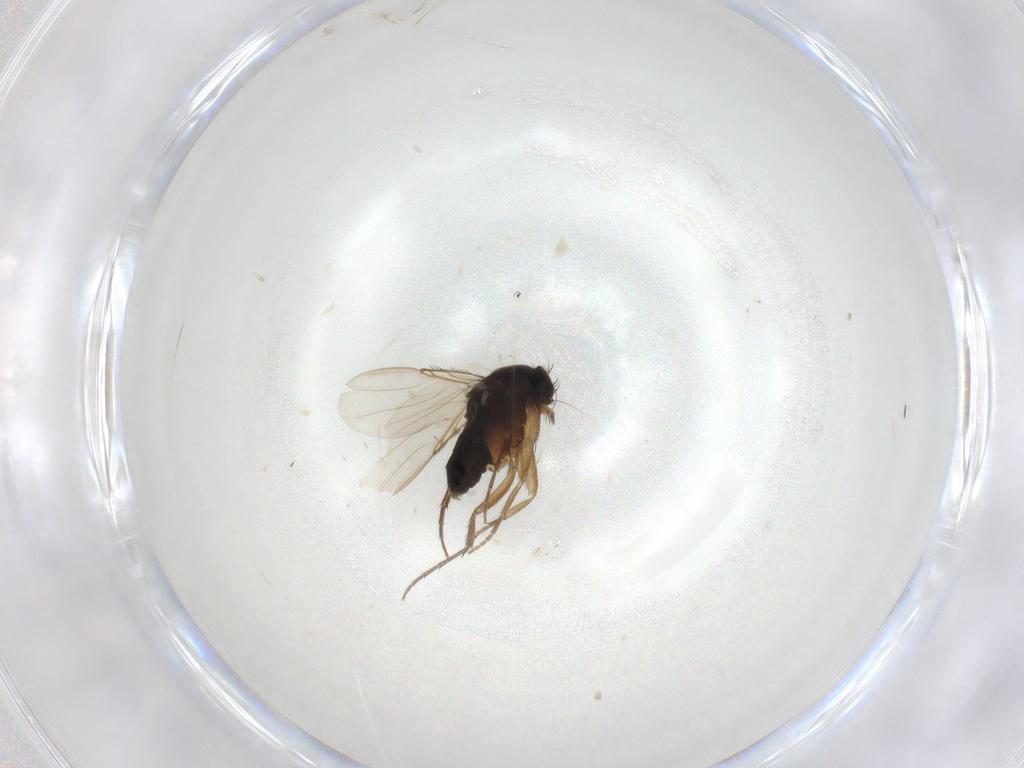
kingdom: Animalia
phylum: Arthropoda
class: Insecta
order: Diptera
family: Phoridae
